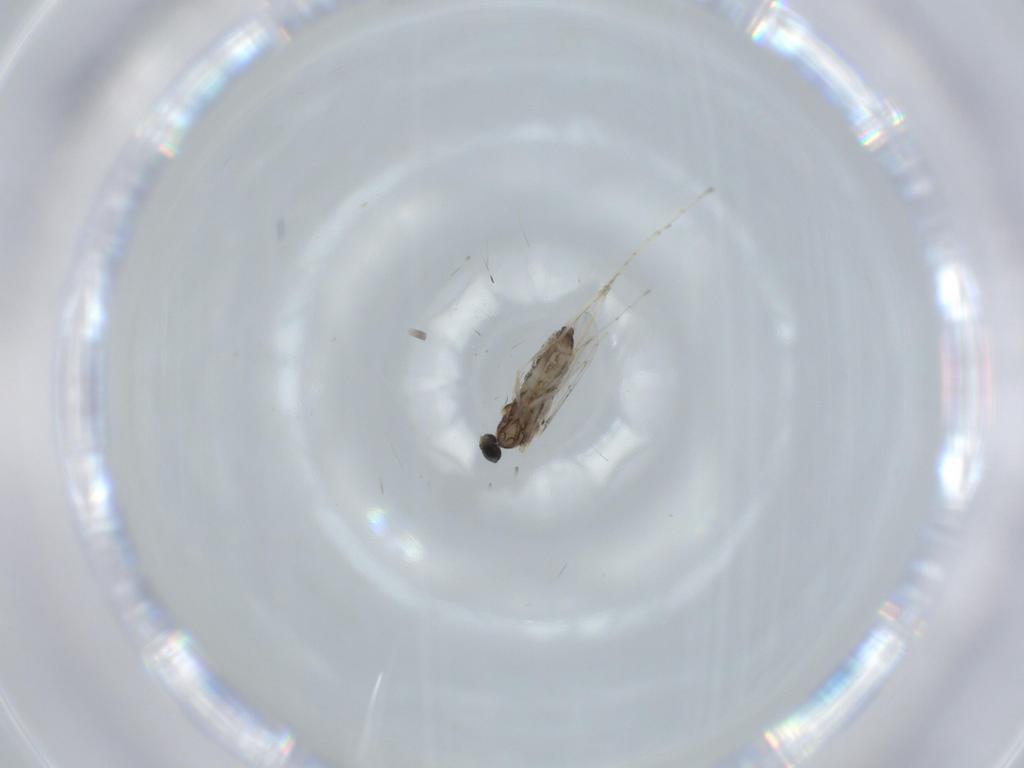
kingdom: Animalia
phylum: Arthropoda
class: Insecta
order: Diptera
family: Cecidomyiidae
